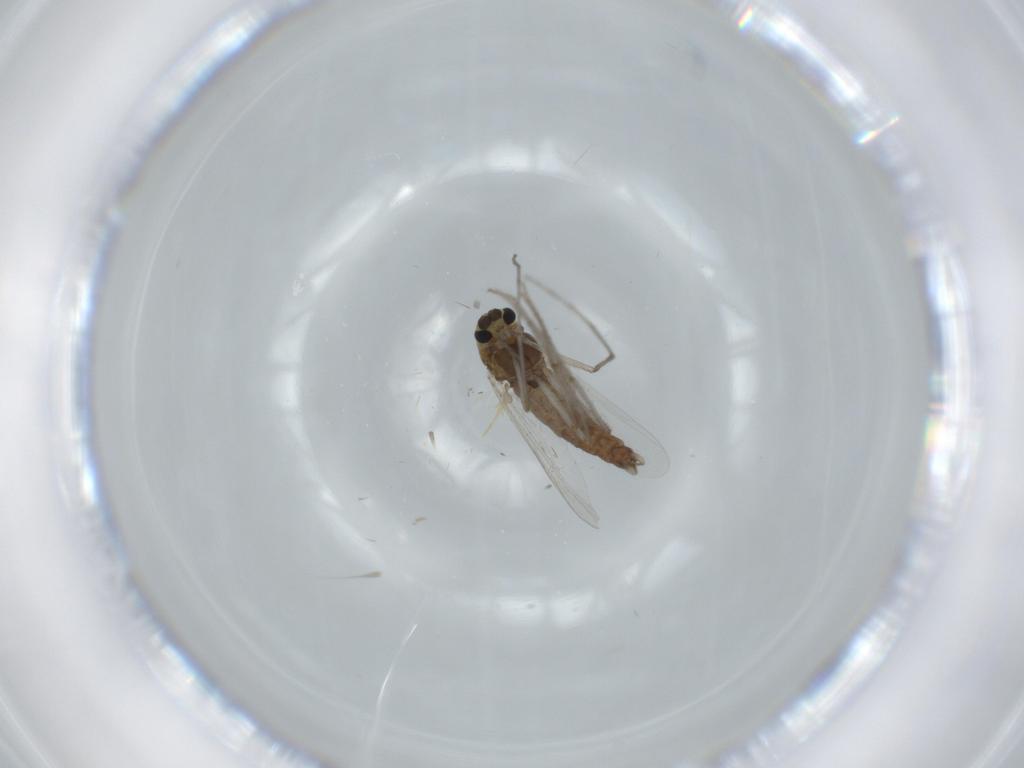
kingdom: Animalia
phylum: Arthropoda
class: Insecta
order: Diptera
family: Chironomidae
